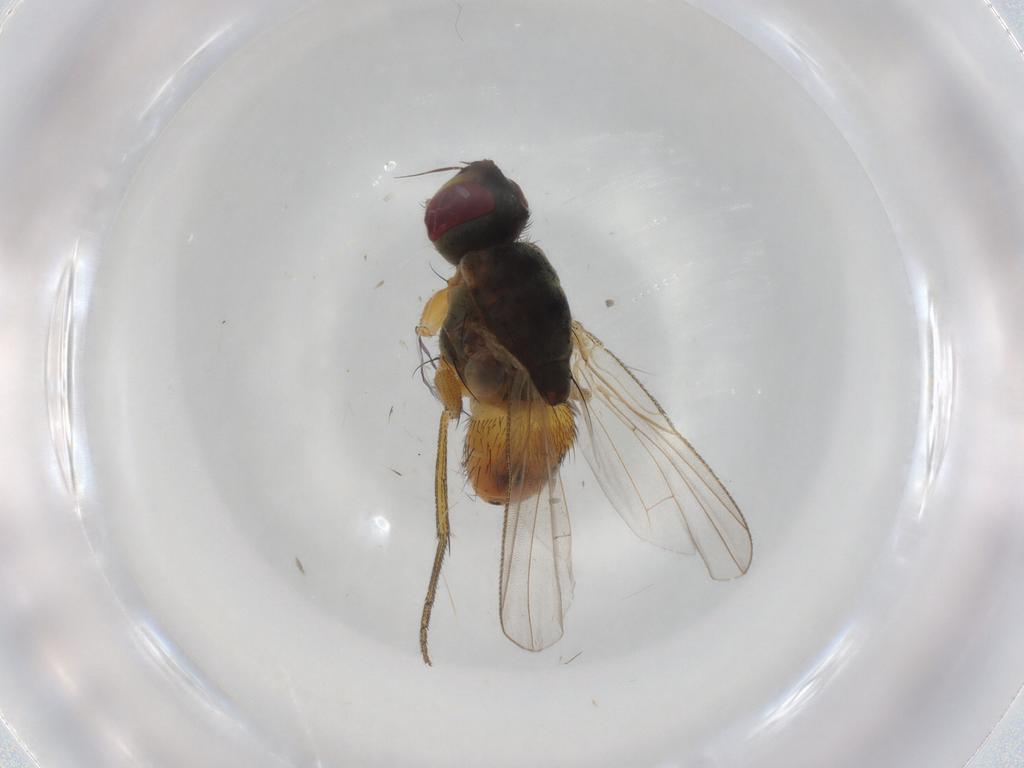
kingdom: Animalia
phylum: Arthropoda
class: Insecta
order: Diptera
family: Muscidae
